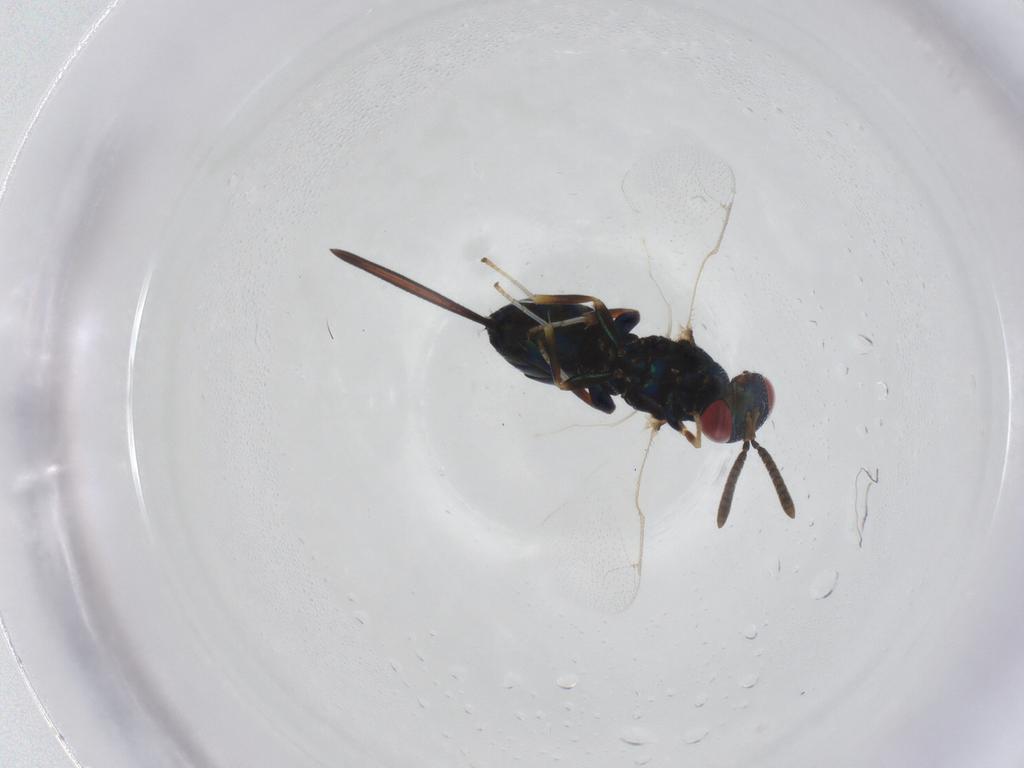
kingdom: Animalia
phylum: Arthropoda
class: Insecta
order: Hymenoptera
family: Torymidae
